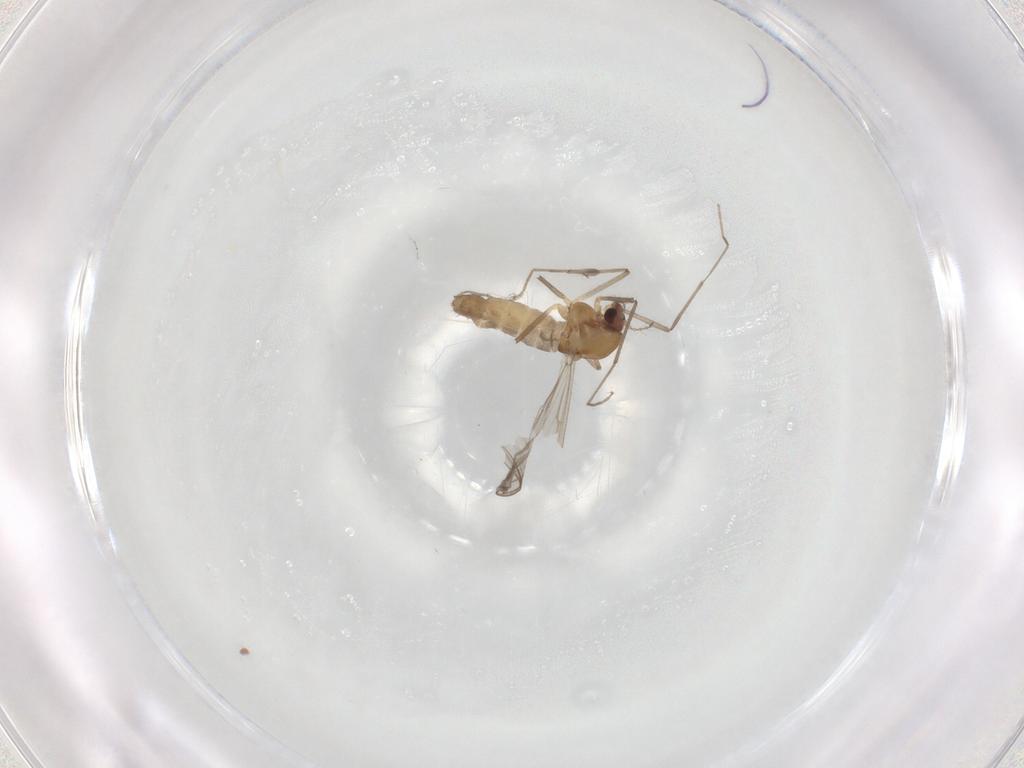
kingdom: Animalia
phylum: Arthropoda
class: Insecta
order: Diptera
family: Chironomidae
